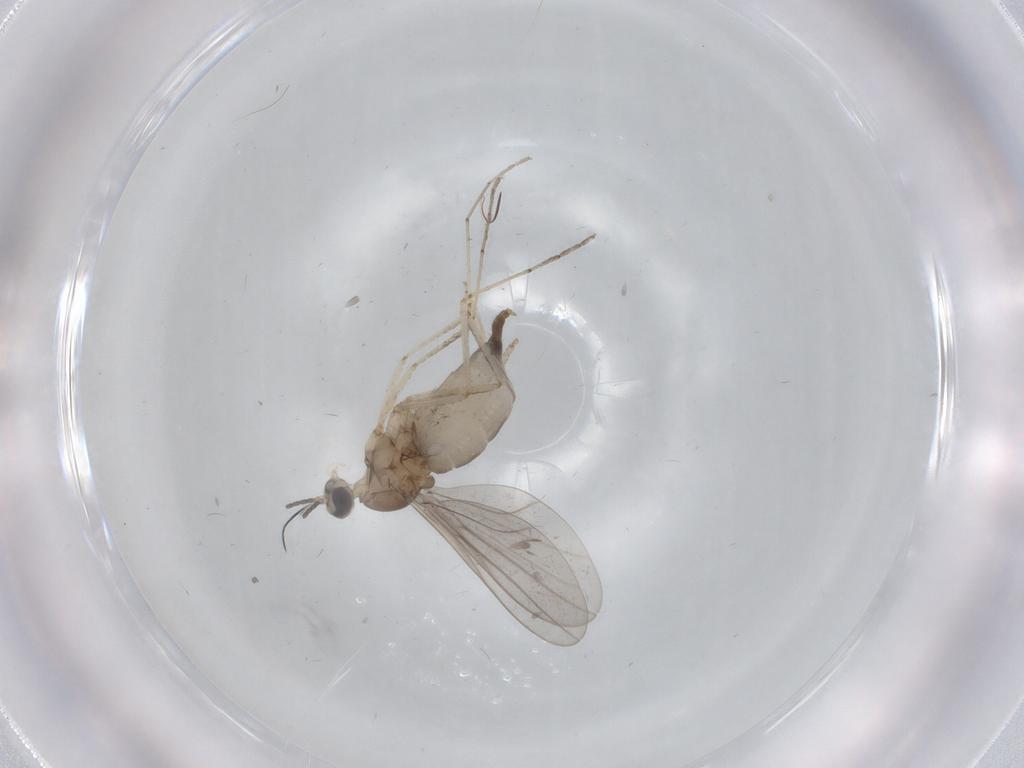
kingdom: Animalia
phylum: Arthropoda
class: Insecta
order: Diptera
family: Cecidomyiidae
